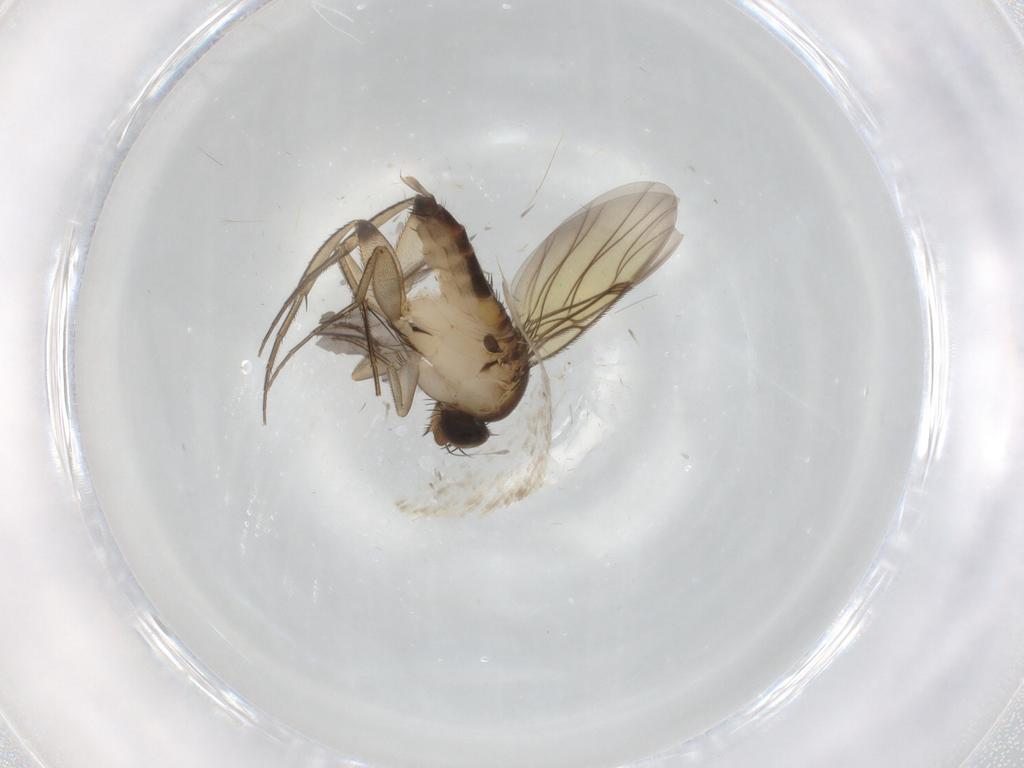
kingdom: Animalia
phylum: Arthropoda
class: Insecta
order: Diptera
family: Phoridae
